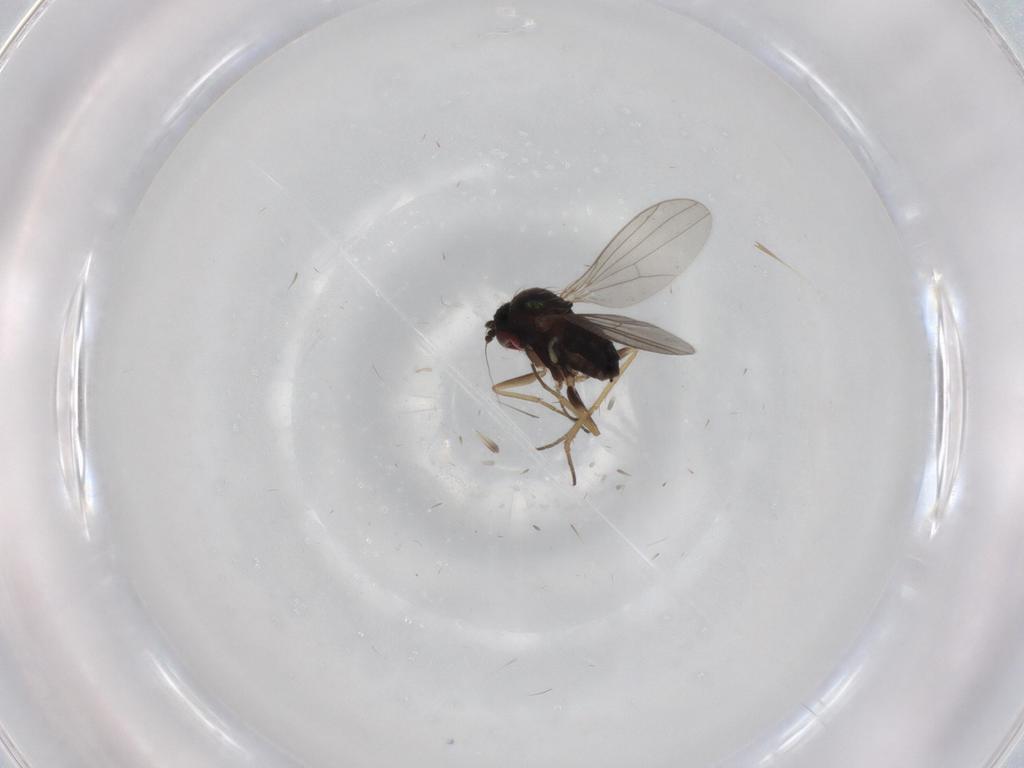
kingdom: Animalia
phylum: Arthropoda
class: Insecta
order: Diptera
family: Dolichopodidae
